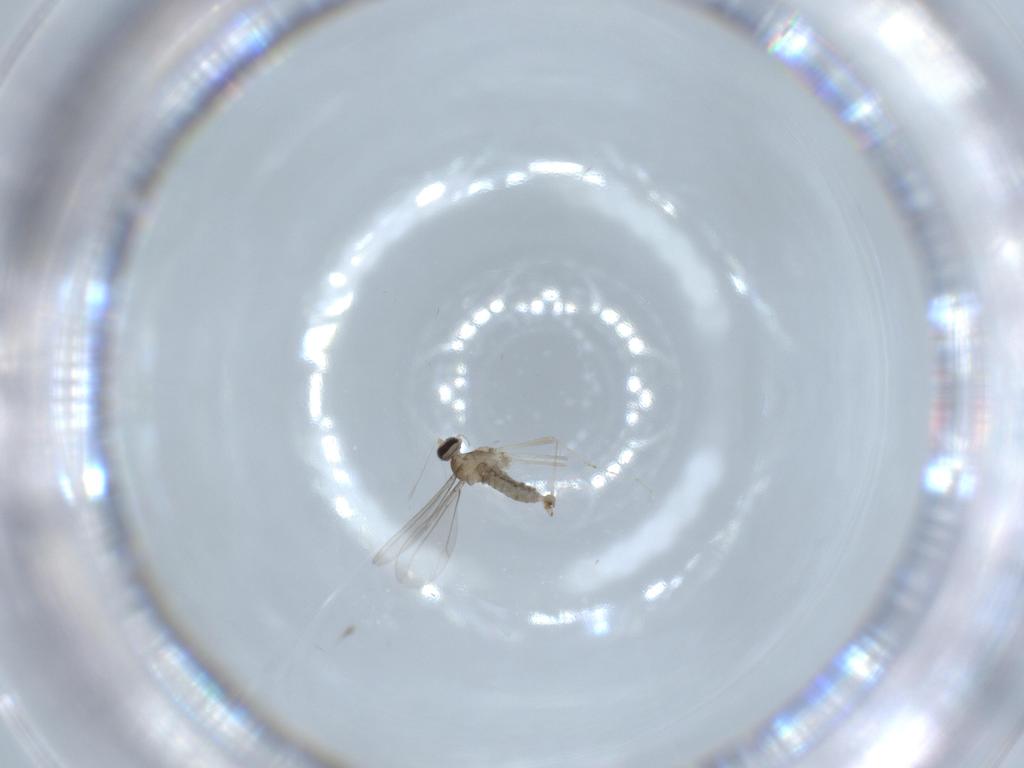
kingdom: Animalia
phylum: Arthropoda
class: Insecta
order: Diptera
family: Cecidomyiidae
